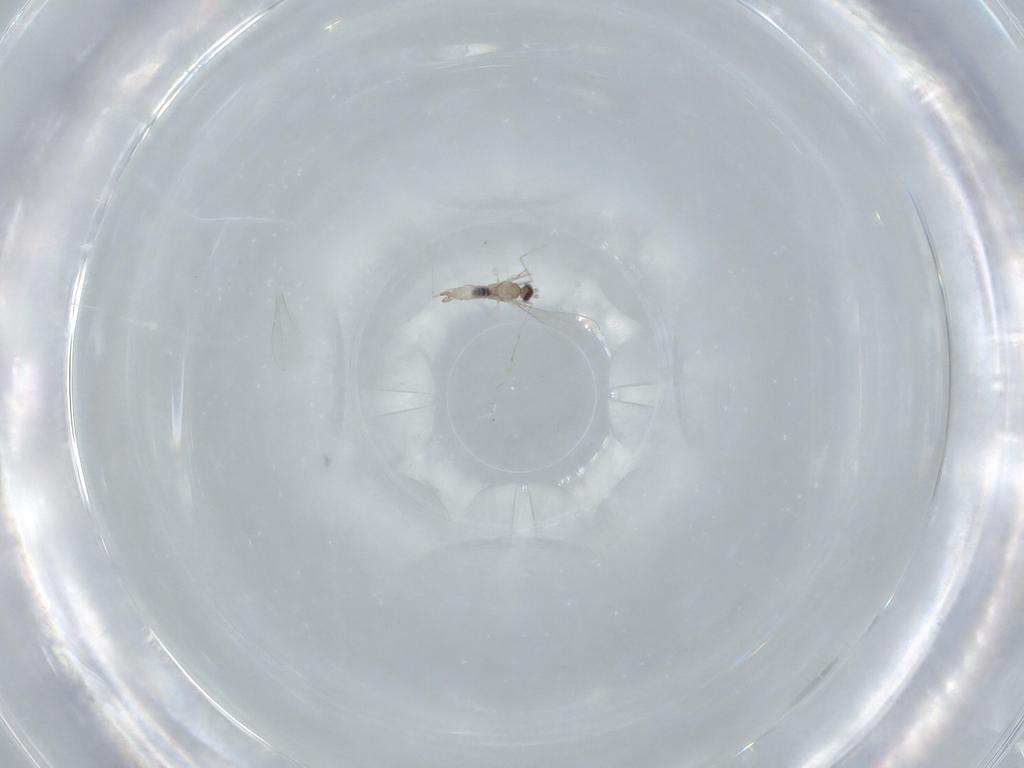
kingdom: Animalia
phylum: Arthropoda
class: Insecta
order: Diptera
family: Cecidomyiidae
